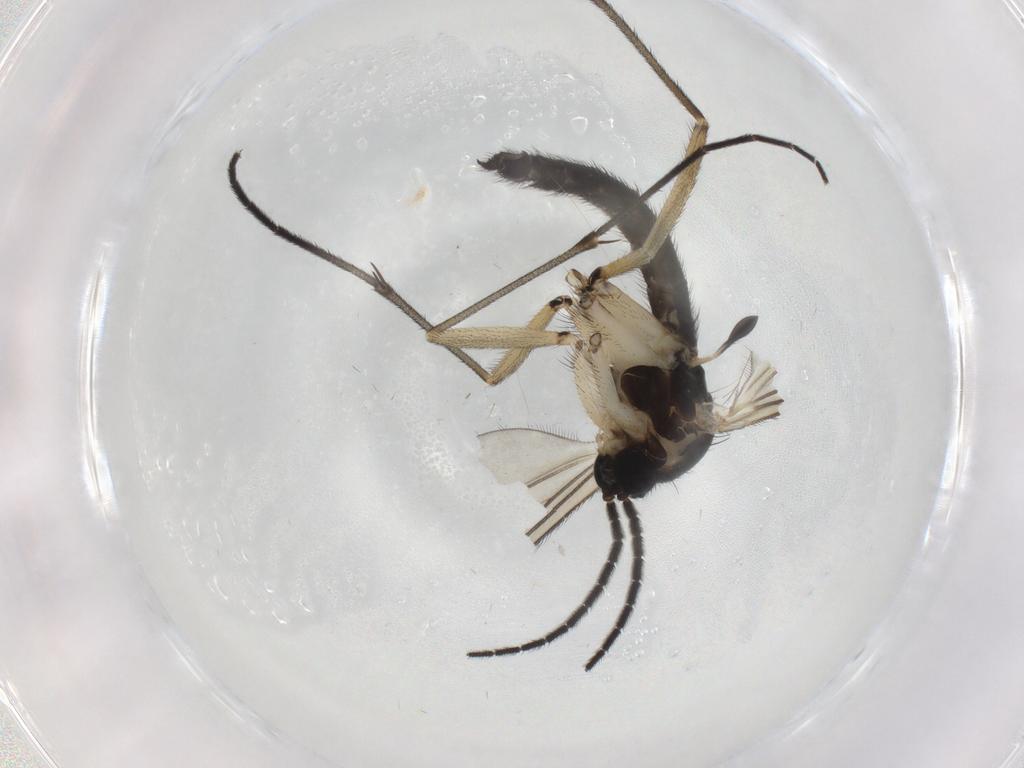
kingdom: Animalia
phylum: Arthropoda
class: Insecta
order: Diptera
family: Sciaridae
